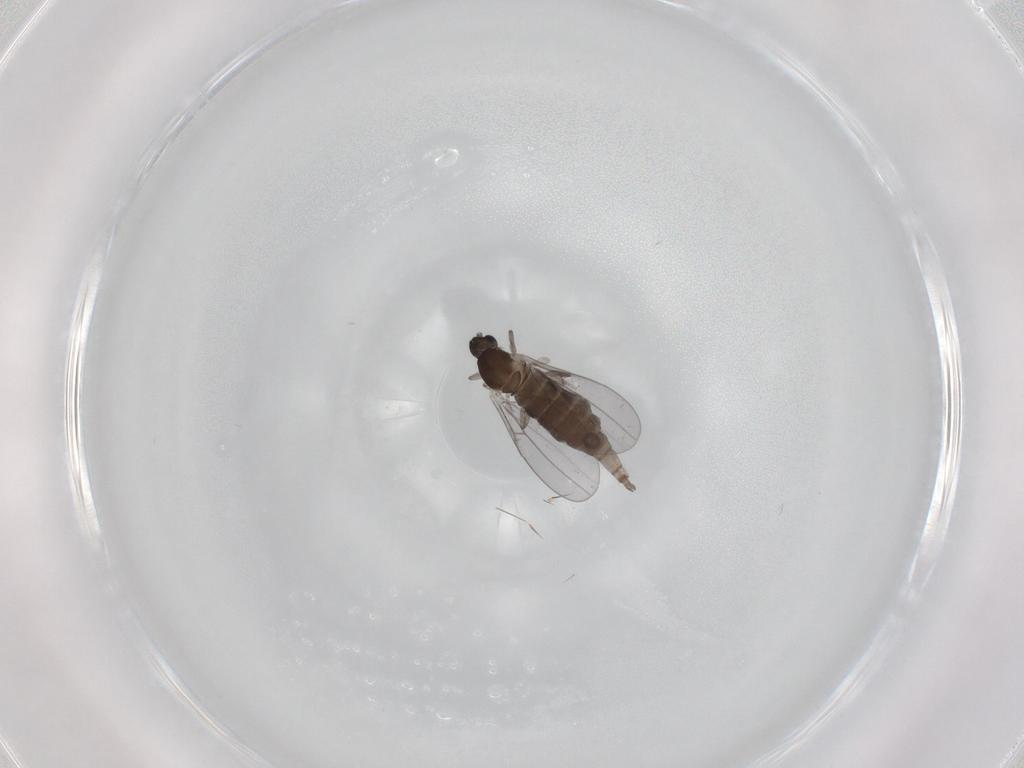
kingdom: Animalia
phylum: Arthropoda
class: Insecta
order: Diptera
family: Cecidomyiidae
